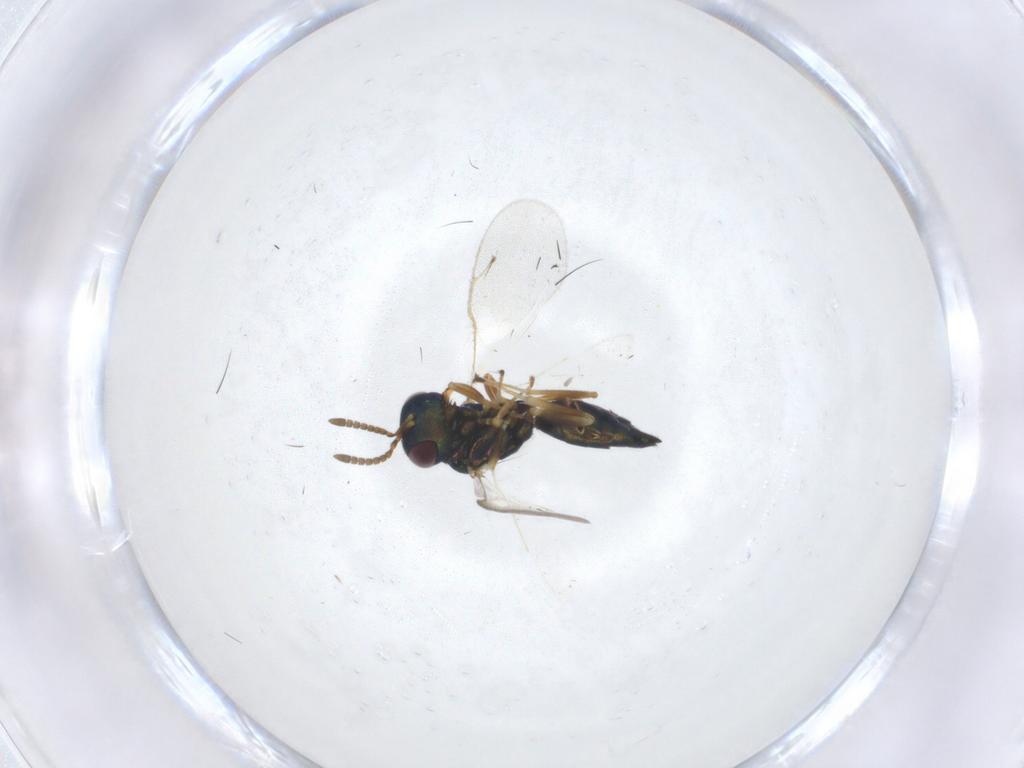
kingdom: Animalia
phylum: Arthropoda
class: Insecta
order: Hymenoptera
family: Pteromalidae
